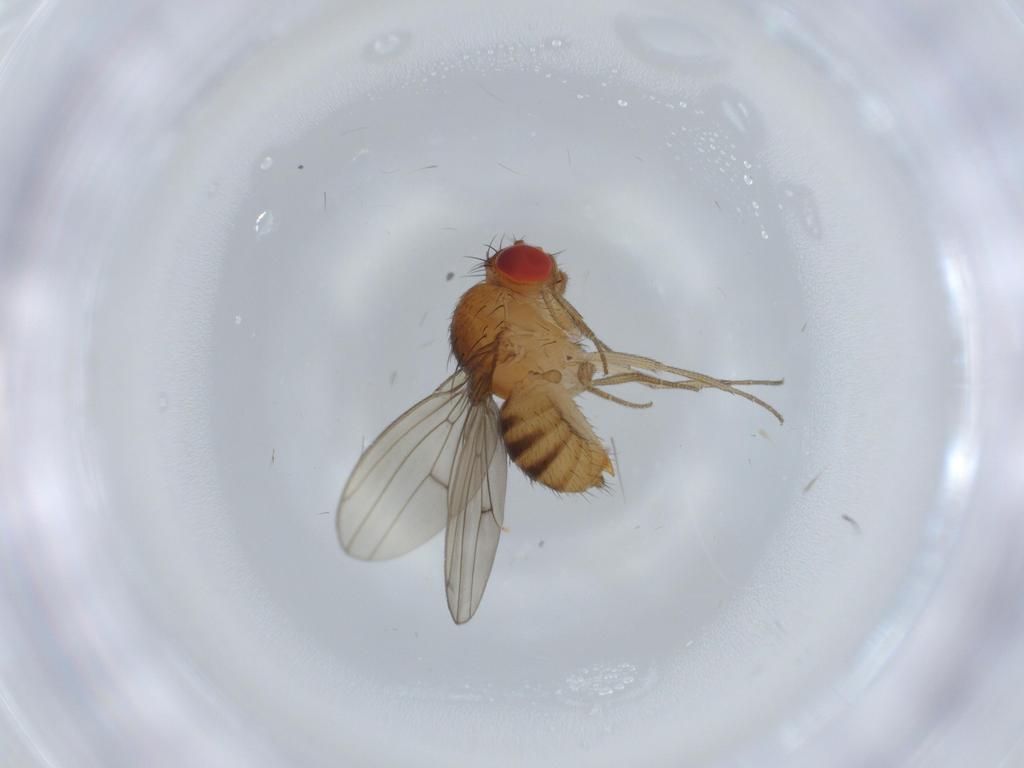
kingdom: Animalia
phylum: Arthropoda
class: Insecta
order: Diptera
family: Drosophilidae
